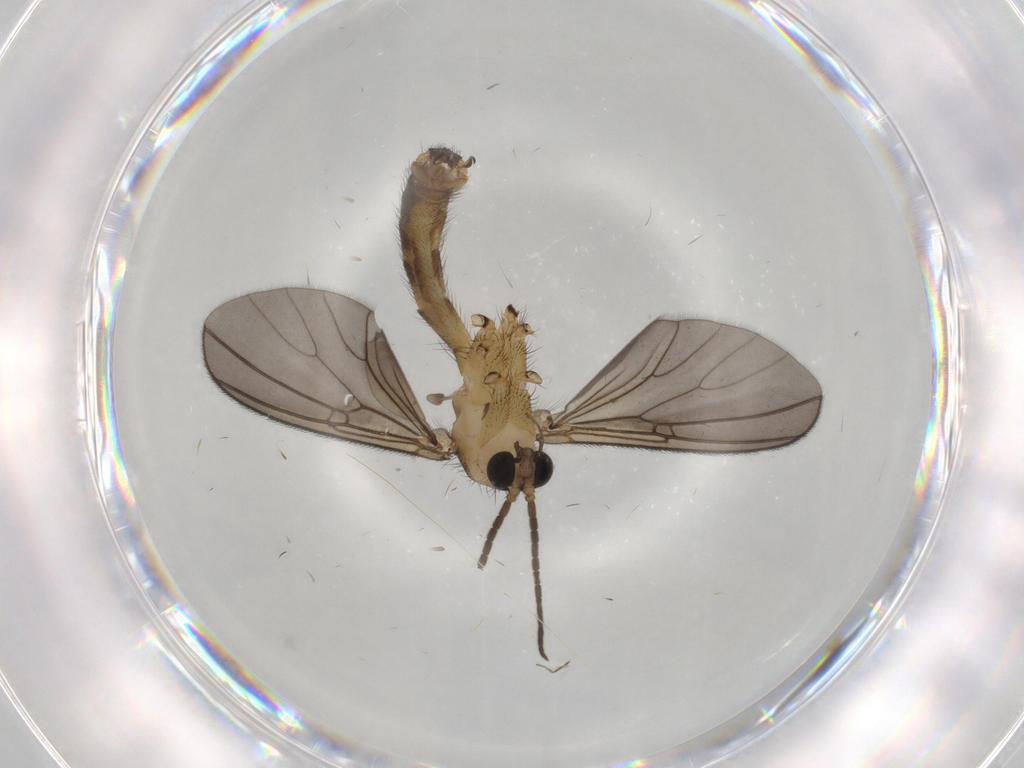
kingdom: Animalia
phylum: Arthropoda
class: Insecta
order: Diptera
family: Mycetophilidae
